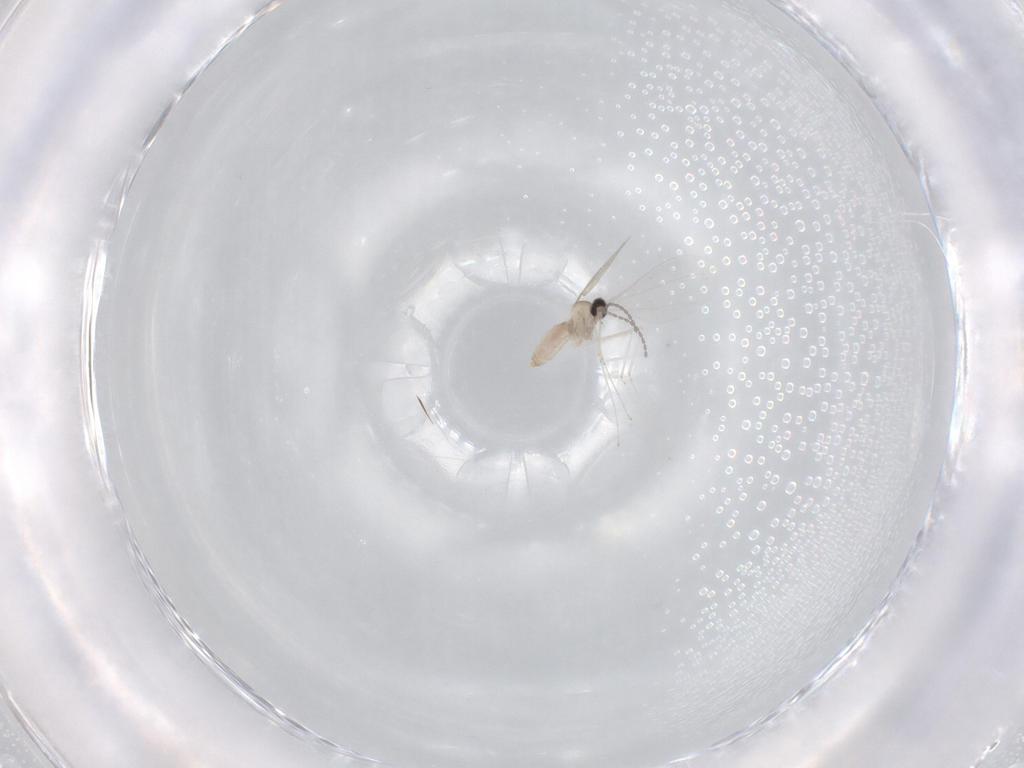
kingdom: Animalia
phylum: Arthropoda
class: Insecta
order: Diptera
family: Cecidomyiidae
